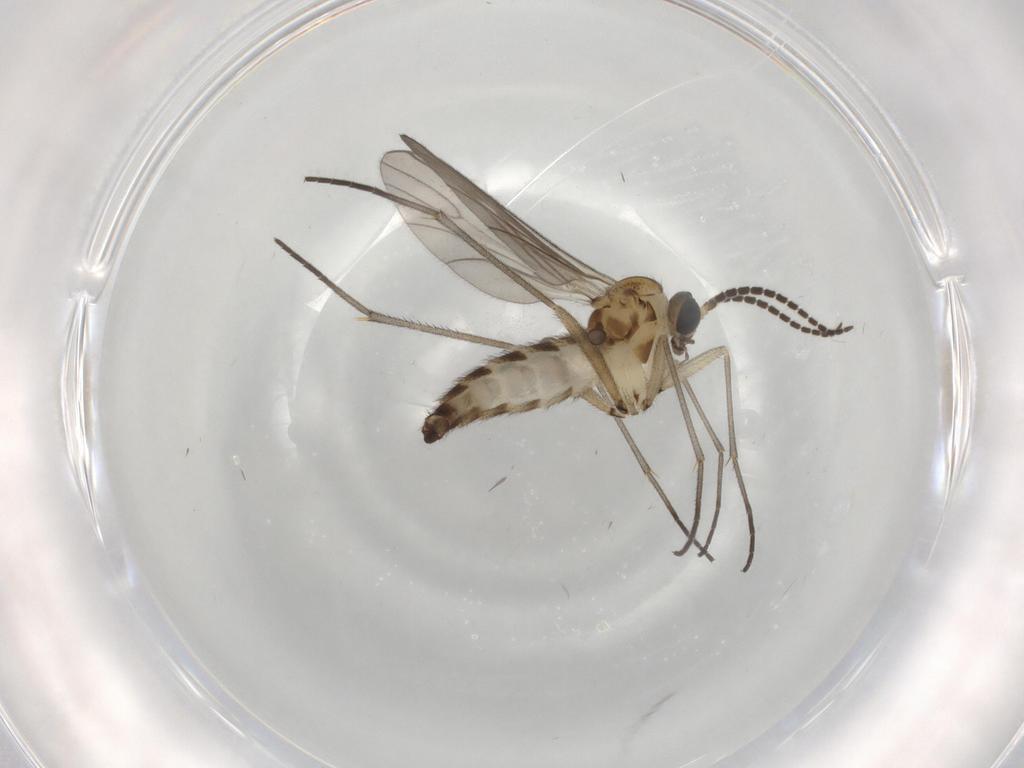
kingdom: Animalia
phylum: Arthropoda
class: Insecta
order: Diptera
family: Sciaridae
